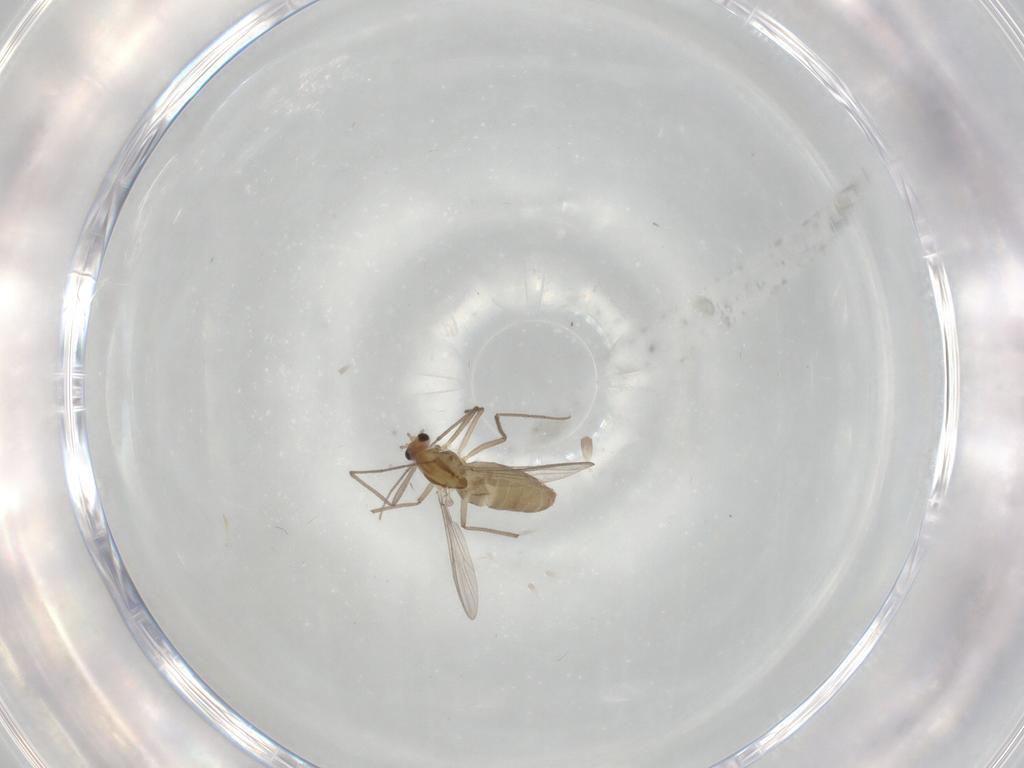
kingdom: Animalia
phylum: Arthropoda
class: Insecta
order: Diptera
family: Chironomidae
